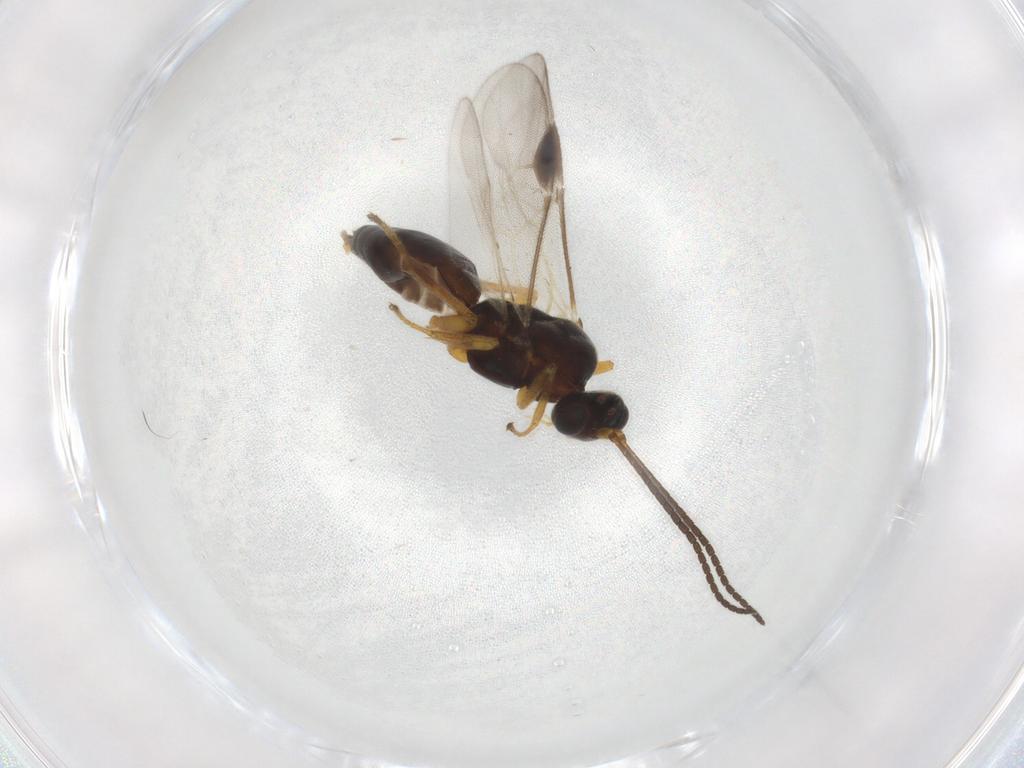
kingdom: Animalia
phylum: Arthropoda
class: Insecta
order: Hymenoptera
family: Braconidae
